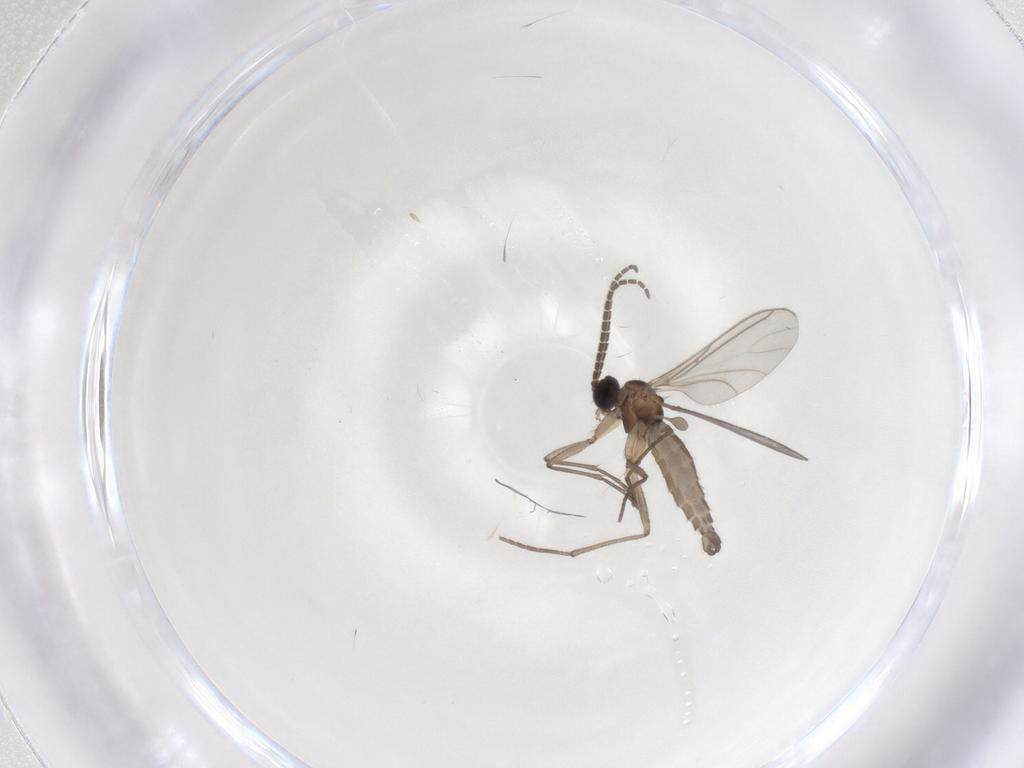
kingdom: Animalia
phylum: Arthropoda
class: Insecta
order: Diptera
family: Sciaridae
